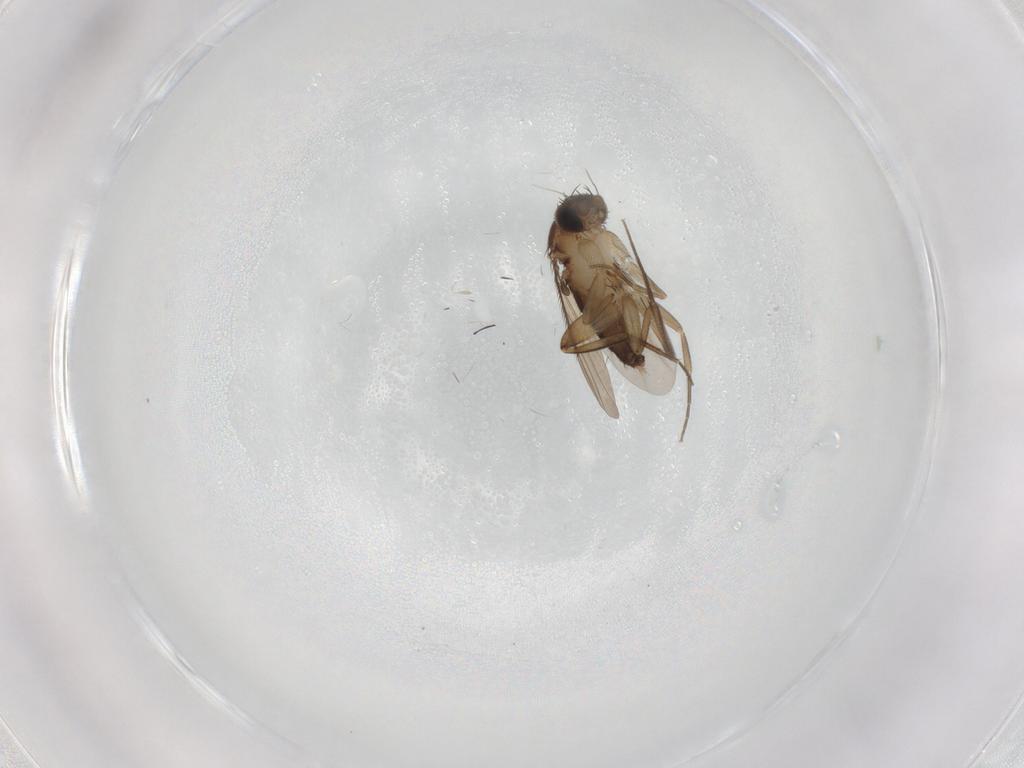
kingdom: Animalia
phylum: Arthropoda
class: Insecta
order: Diptera
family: Phoridae
